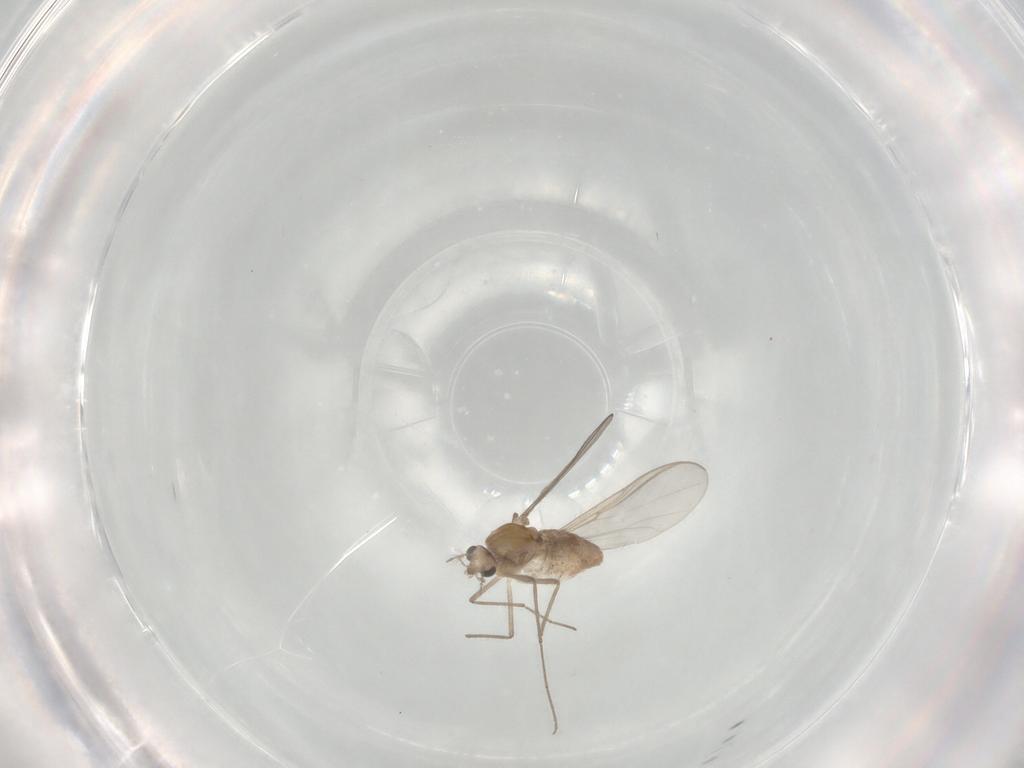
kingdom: Animalia
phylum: Arthropoda
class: Insecta
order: Diptera
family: Chironomidae
